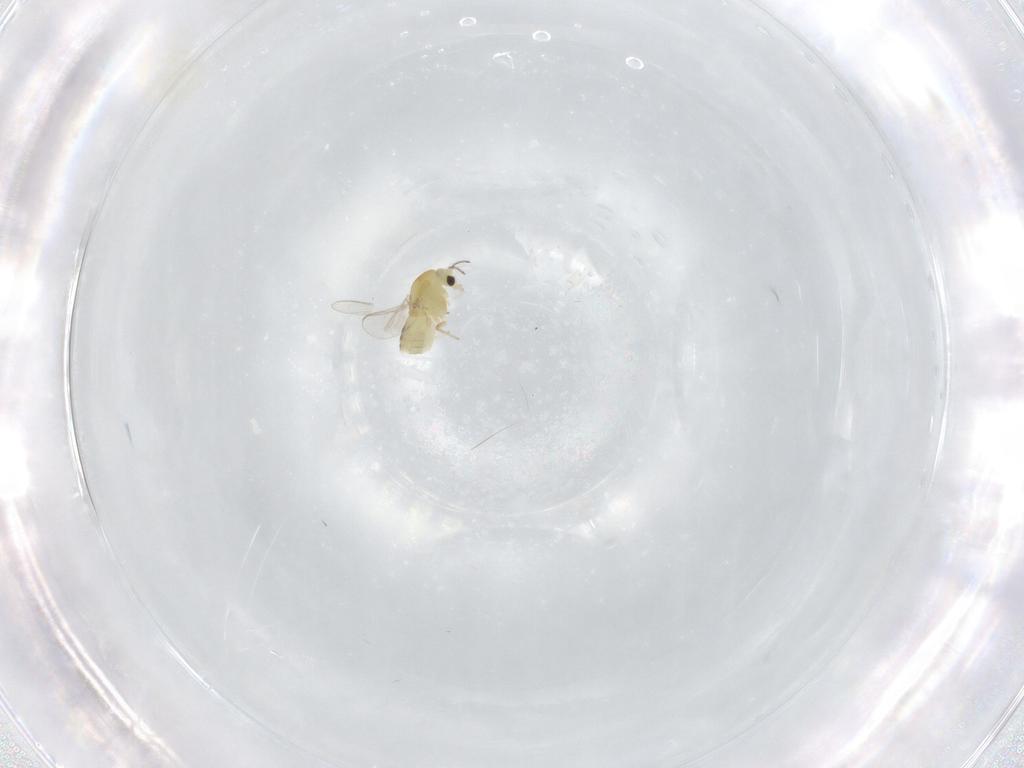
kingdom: Animalia
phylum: Arthropoda
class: Insecta
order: Diptera
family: Chironomidae
